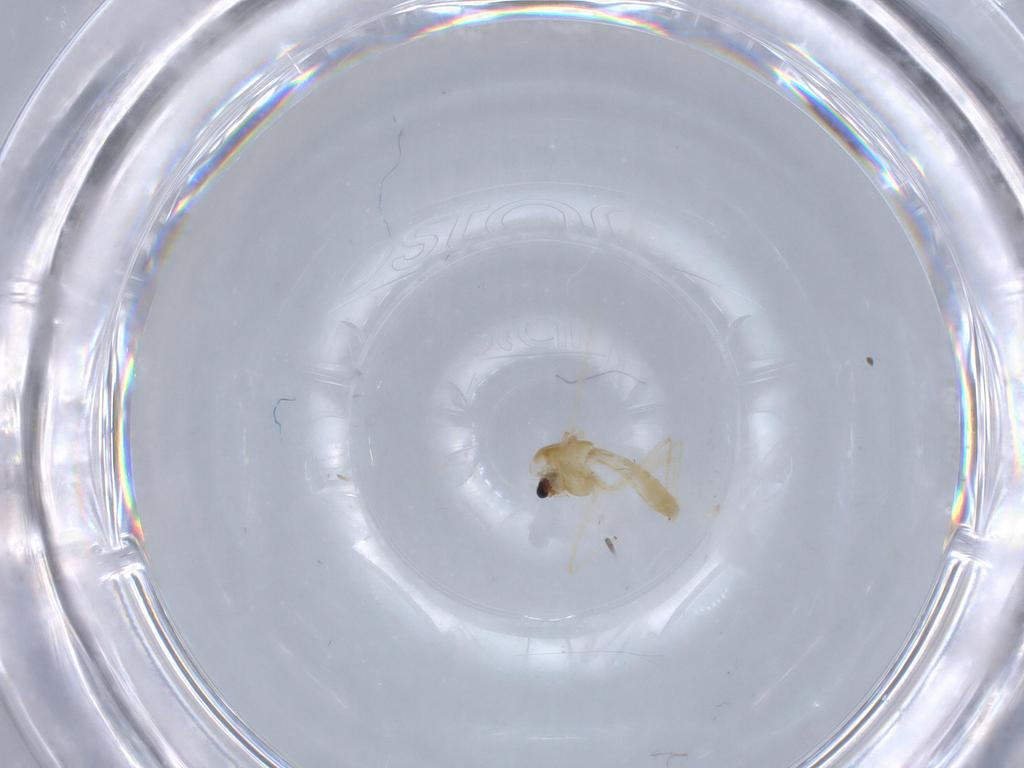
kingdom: Animalia
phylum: Arthropoda
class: Insecta
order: Diptera
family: Chironomidae
